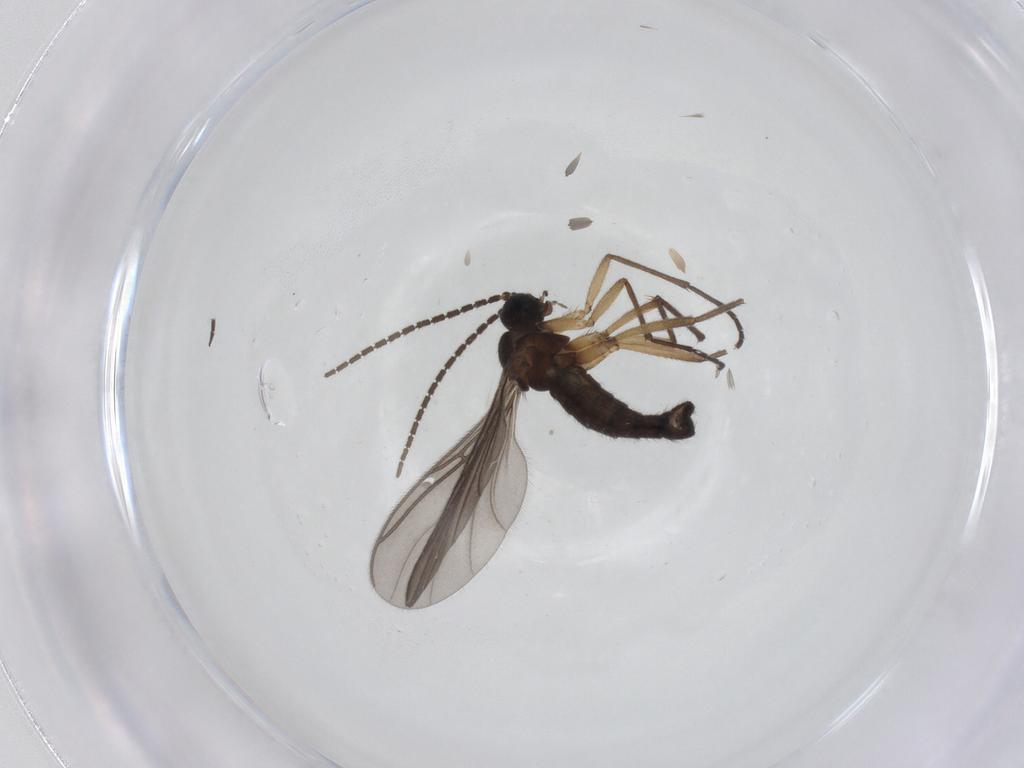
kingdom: Animalia
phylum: Arthropoda
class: Insecta
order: Diptera
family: Sciaridae
